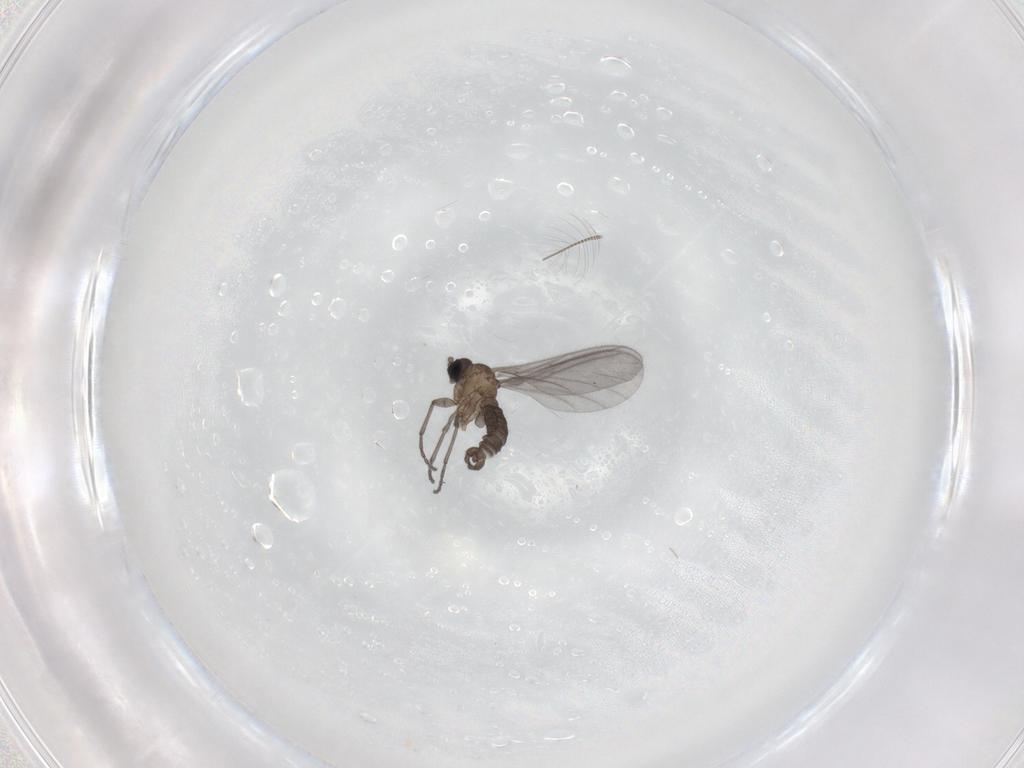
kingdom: Animalia
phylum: Arthropoda
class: Insecta
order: Diptera
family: Sciaridae
